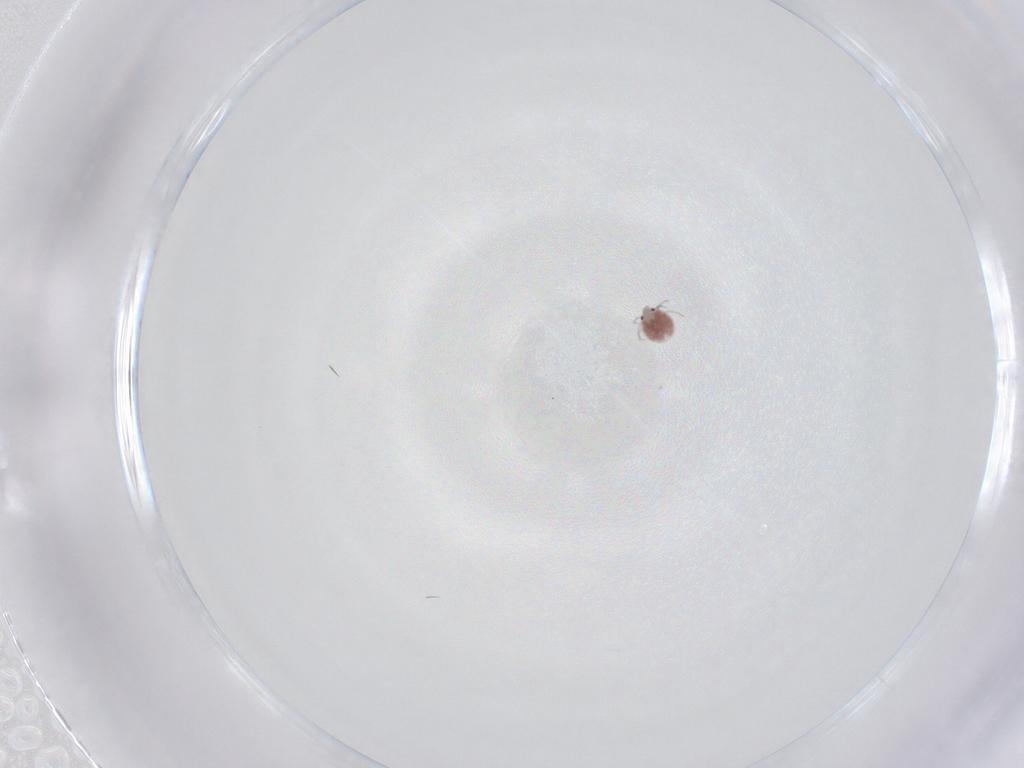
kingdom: Animalia
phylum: Arthropoda
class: Arachnida
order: Trombidiformes
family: Pionidae
